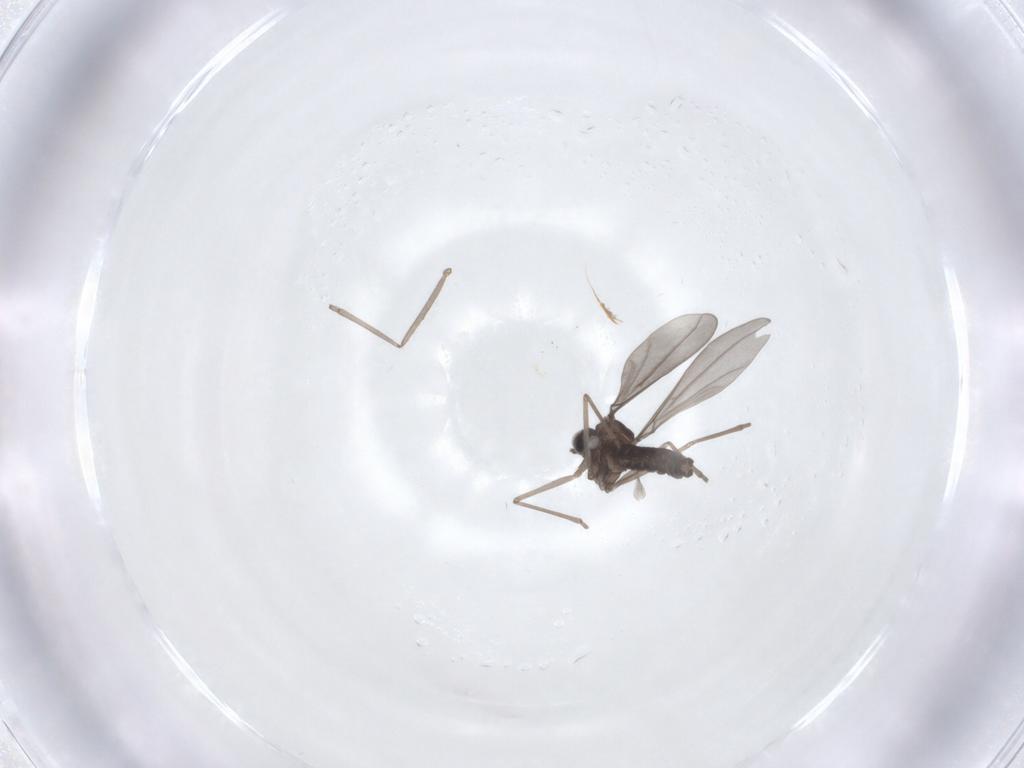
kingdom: Animalia
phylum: Arthropoda
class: Insecta
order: Diptera
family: Cecidomyiidae
